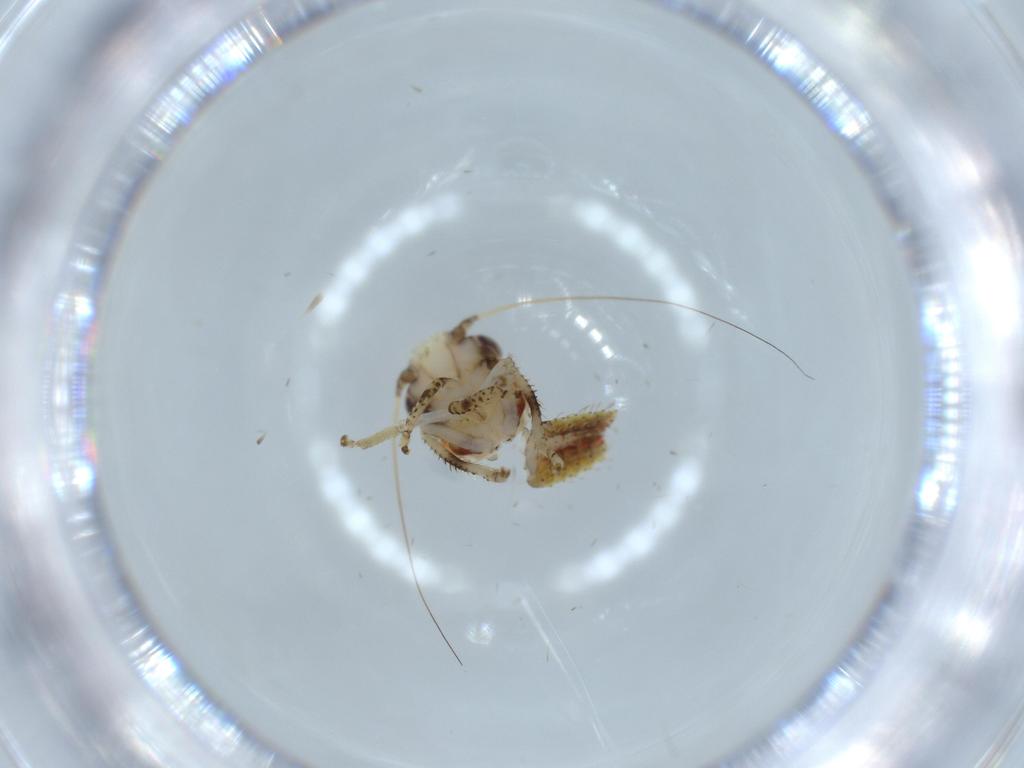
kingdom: Animalia
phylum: Arthropoda
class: Insecta
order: Hemiptera
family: Cicadellidae
